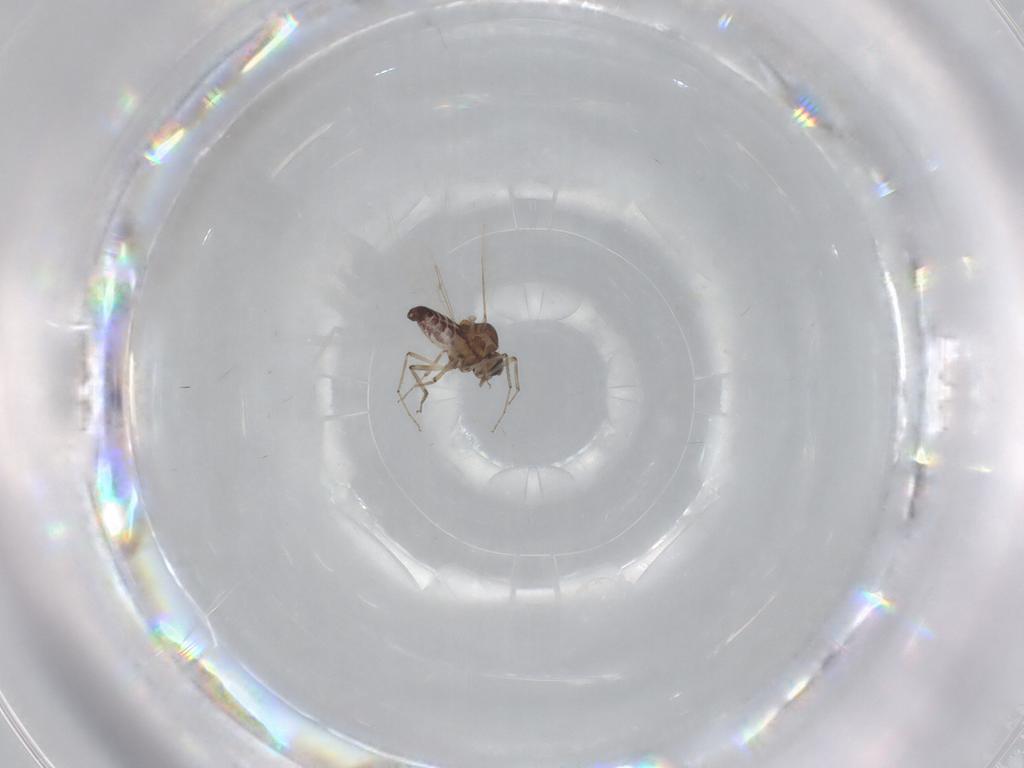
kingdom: Animalia
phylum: Arthropoda
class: Insecta
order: Diptera
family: Ceratopogonidae
